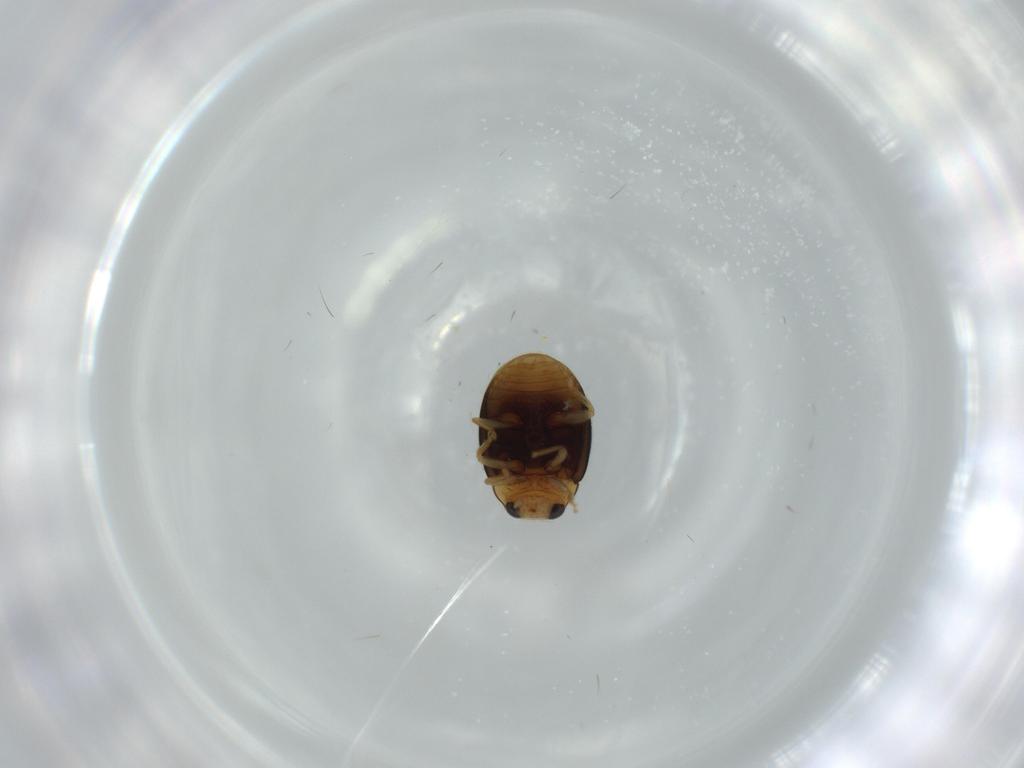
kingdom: Animalia
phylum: Arthropoda
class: Insecta
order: Coleoptera
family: Coccinellidae
